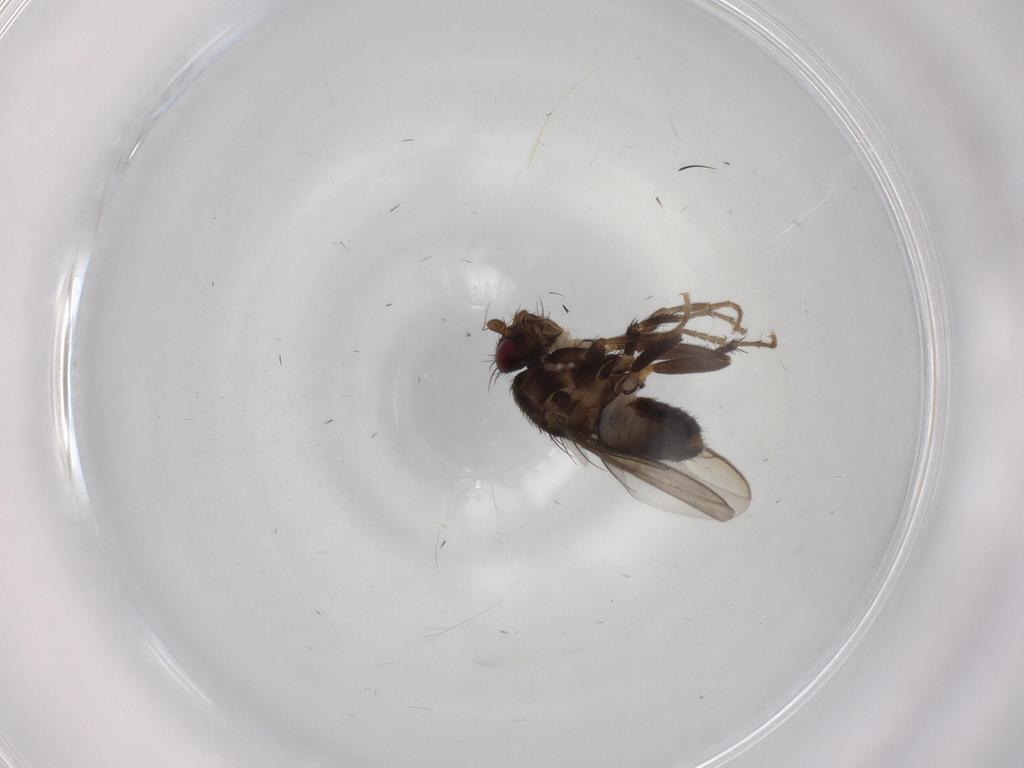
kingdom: Animalia
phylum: Arthropoda
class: Insecta
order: Diptera
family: Sphaeroceridae
